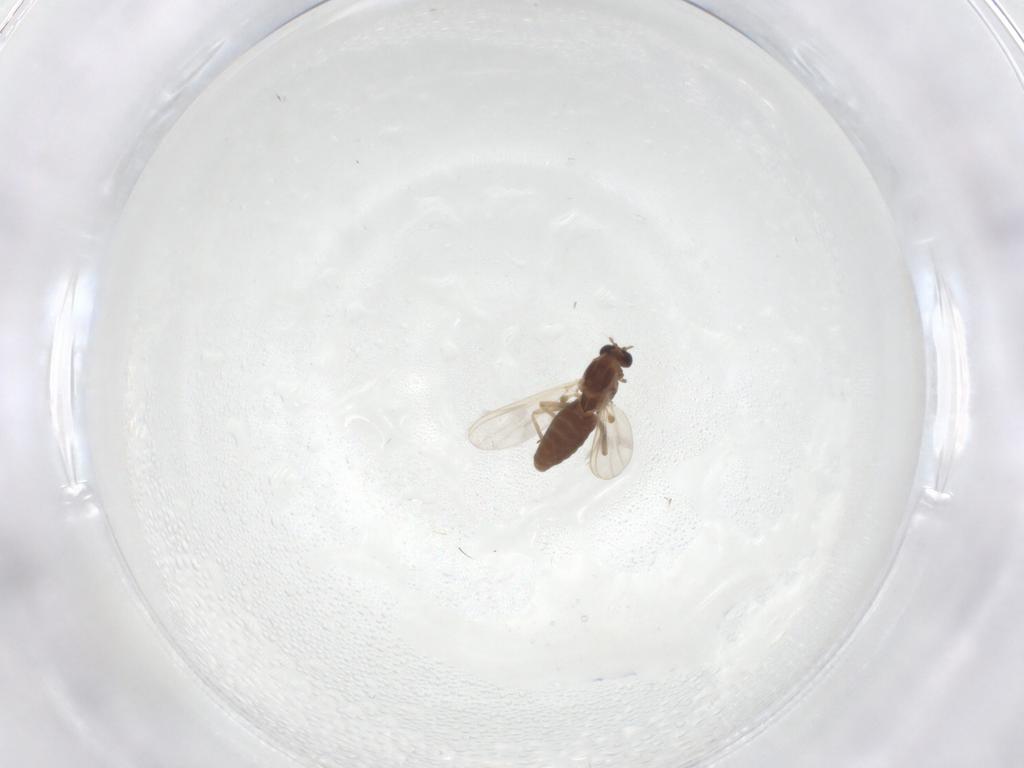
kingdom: Animalia
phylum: Arthropoda
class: Insecta
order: Diptera
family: Chironomidae
